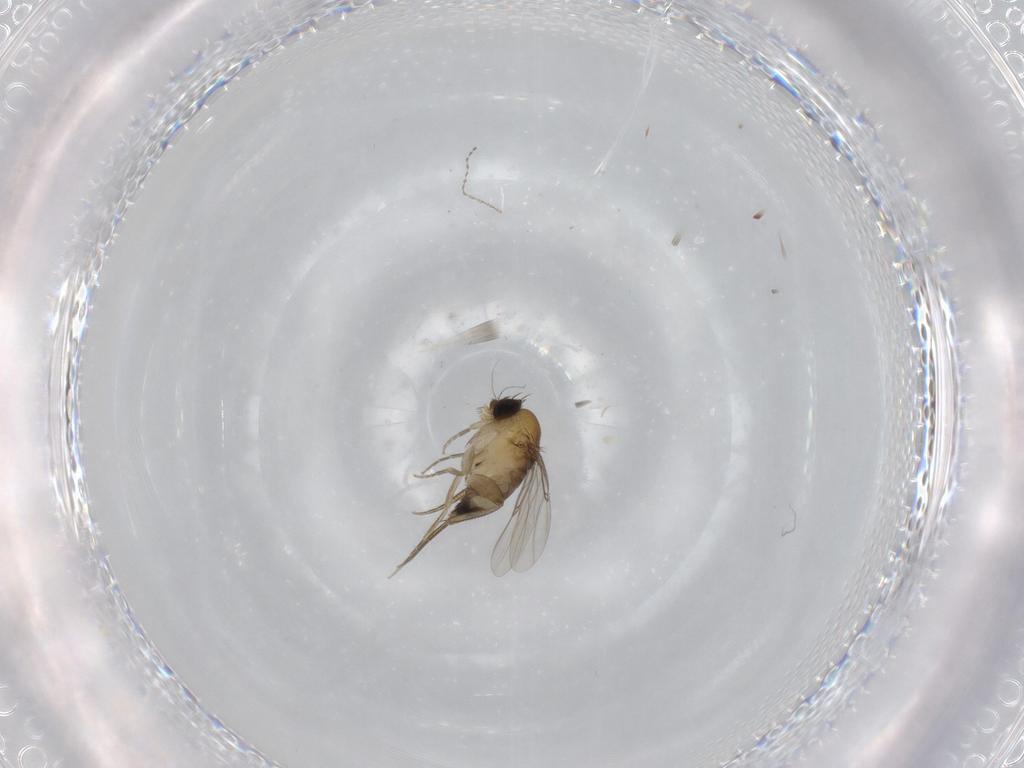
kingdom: Animalia
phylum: Arthropoda
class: Insecta
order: Diptera
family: Cecidomyiidae
